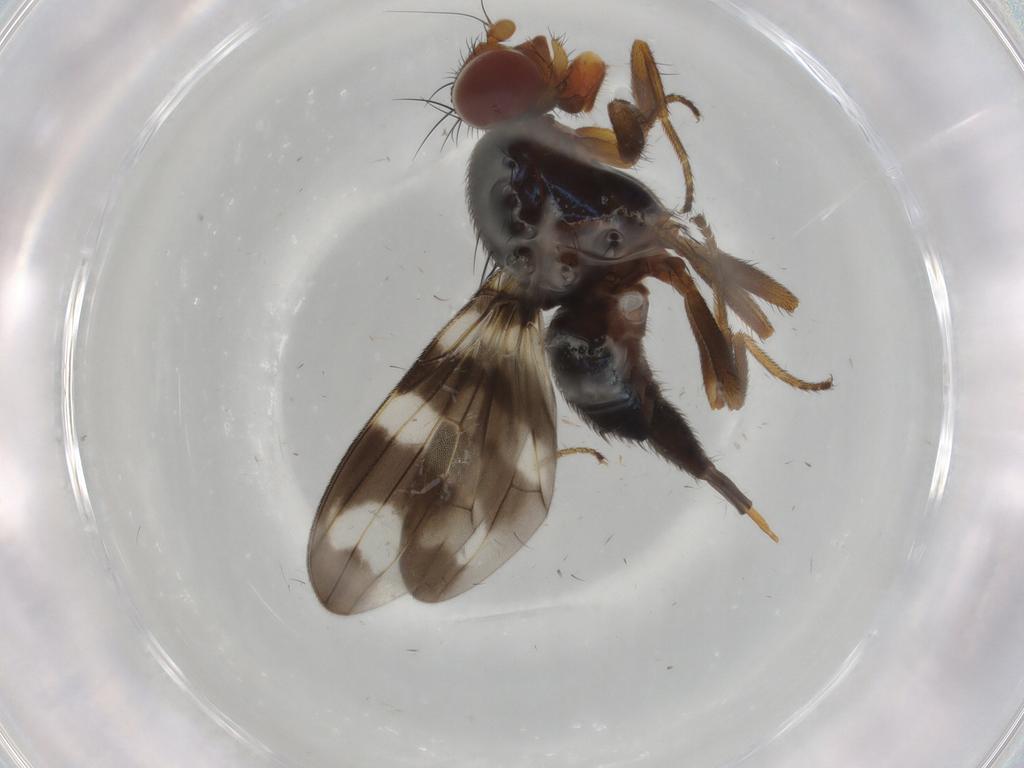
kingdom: Animalia
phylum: Arthropoda
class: Insecta
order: Diptera
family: Ulidiidae
